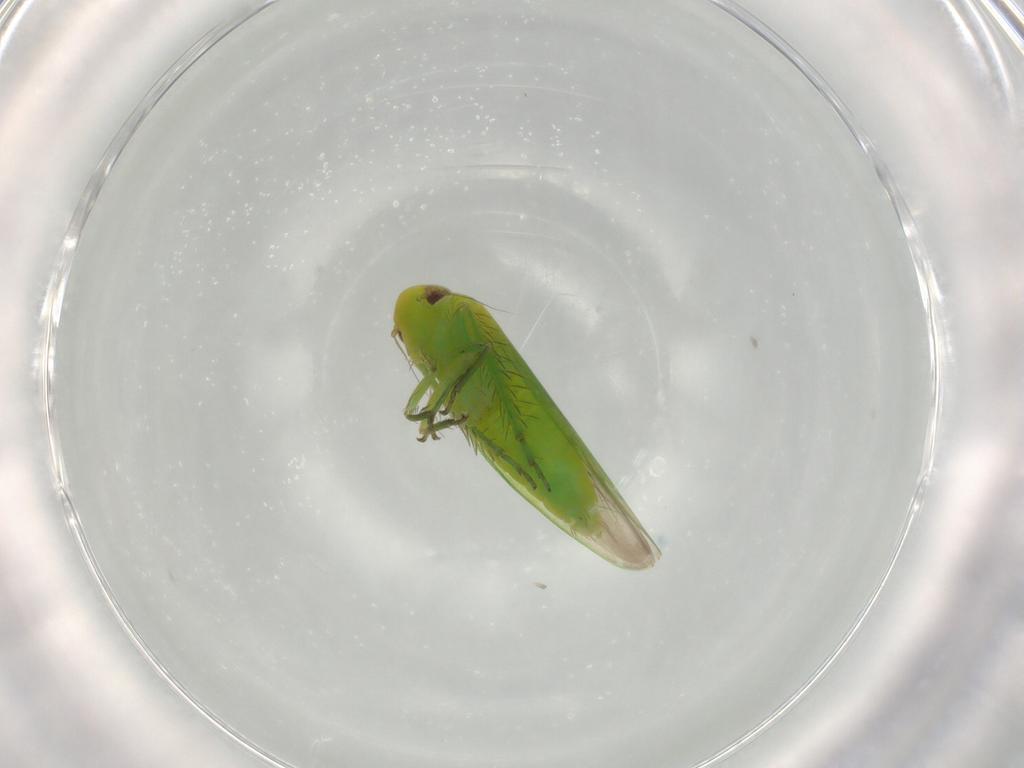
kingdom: Animalia
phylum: Arthropoda
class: Insecta
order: Hemiptera
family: Cicadellidae
